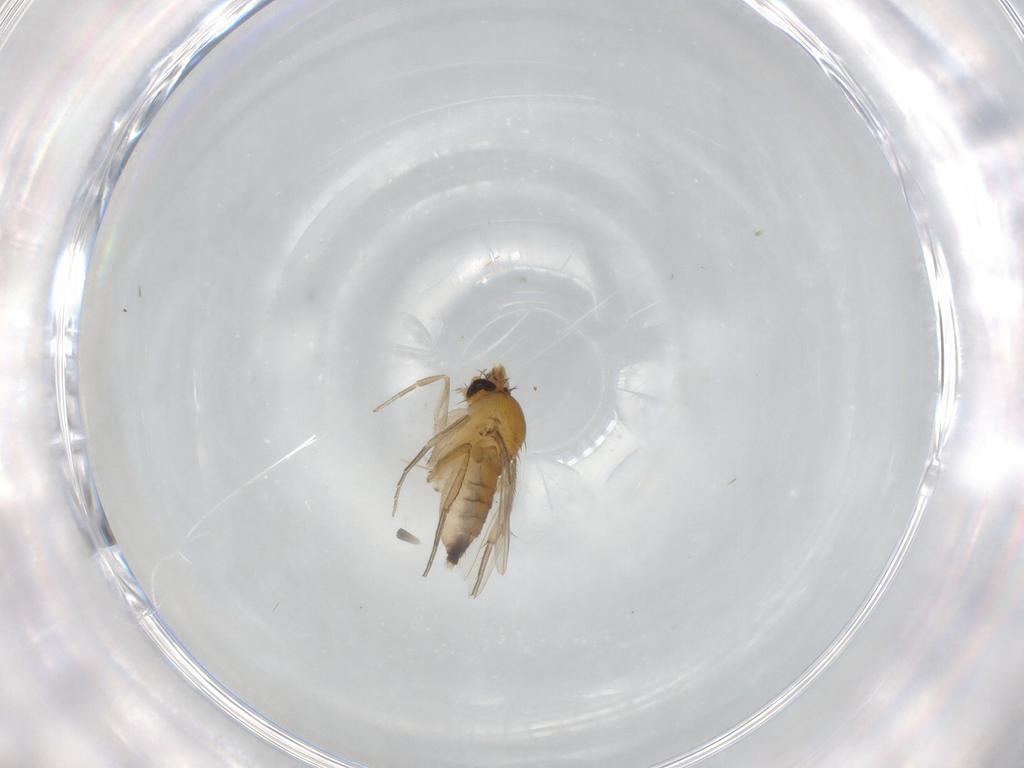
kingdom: Animalia
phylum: Arthropoda
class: Insecta
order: Diptera
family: Phoridae
